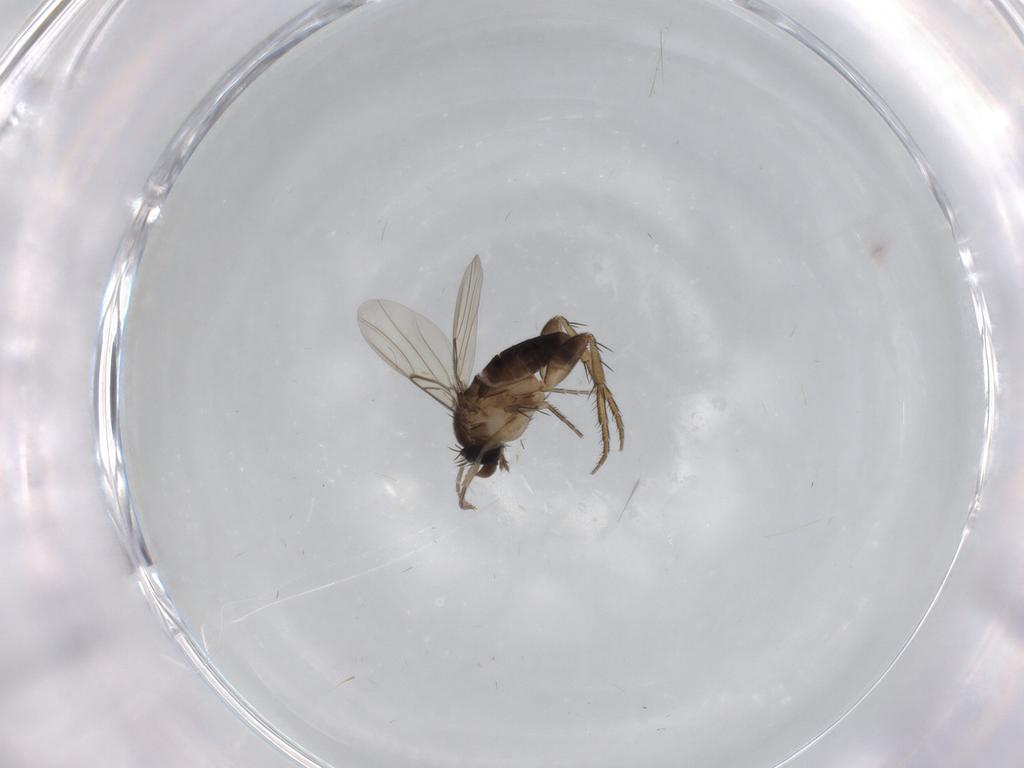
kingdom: Animalia
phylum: Arthropoda
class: Insecta
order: Diptera
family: Phoridae
